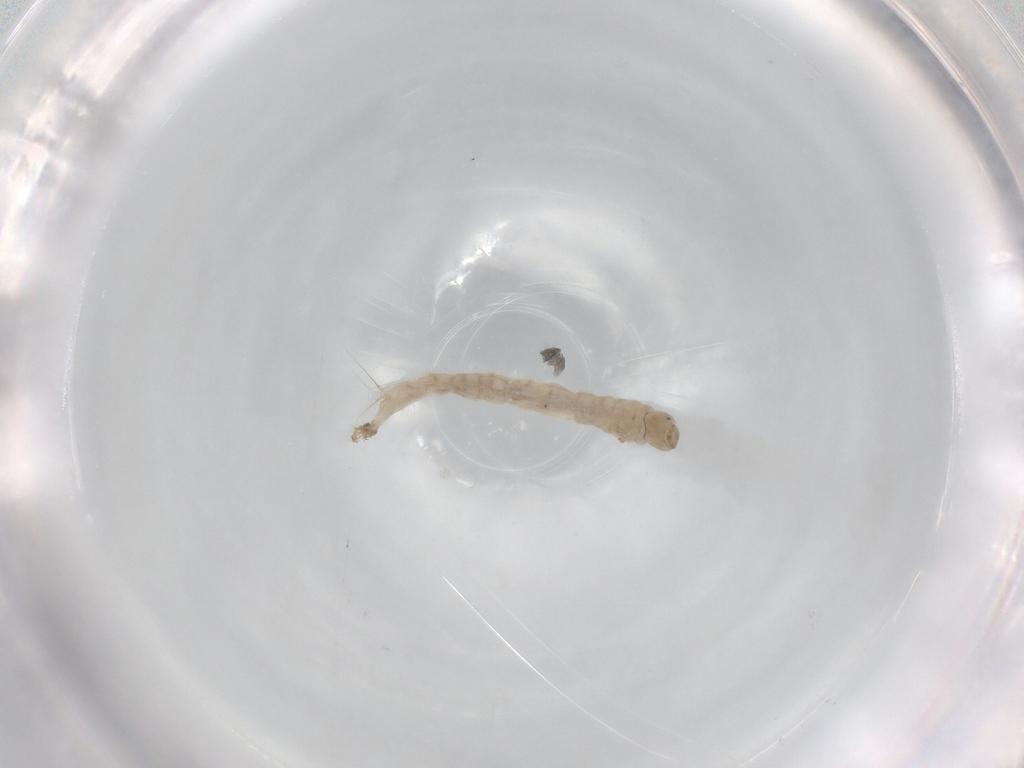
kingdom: Animalia
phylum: Arthropoda
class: Insecta
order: Diptera
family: Chironomidae
